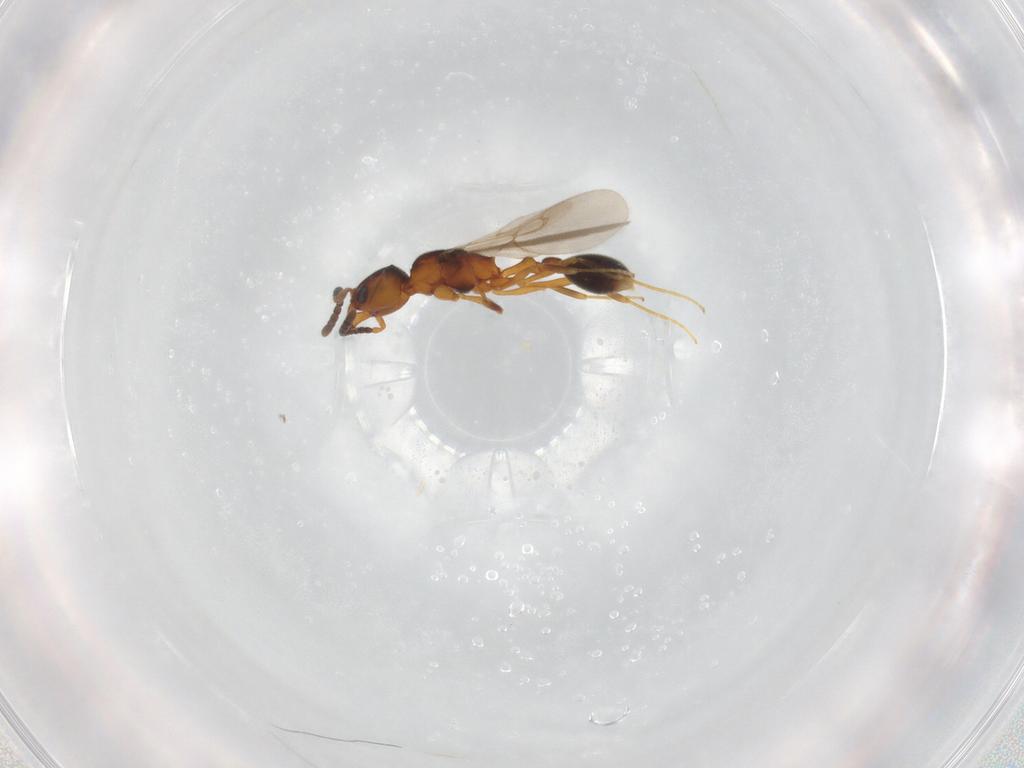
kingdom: Animalia
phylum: Arthropoda
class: Insecta
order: Hymenoptera
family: Formicidae
